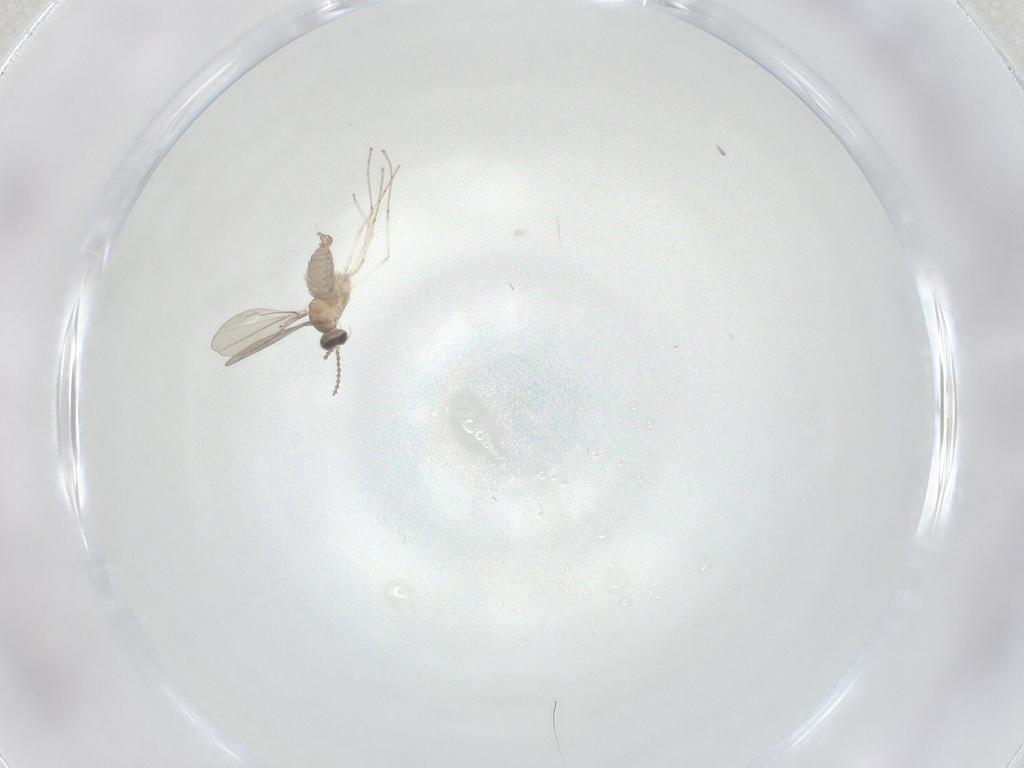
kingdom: Animalia
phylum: Arthropoda
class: Insecta
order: Diptera
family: Cecidomyiidae
